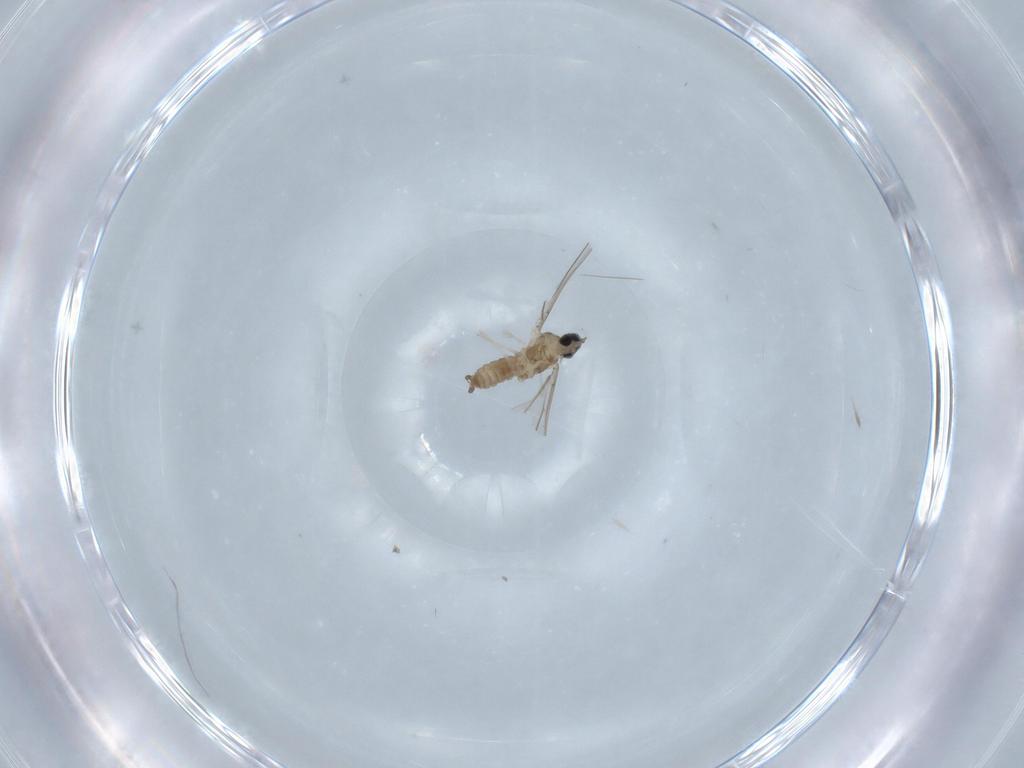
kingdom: Animalia
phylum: Arthropoda
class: Insecta
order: Diptera
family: Cecidomyiidae
